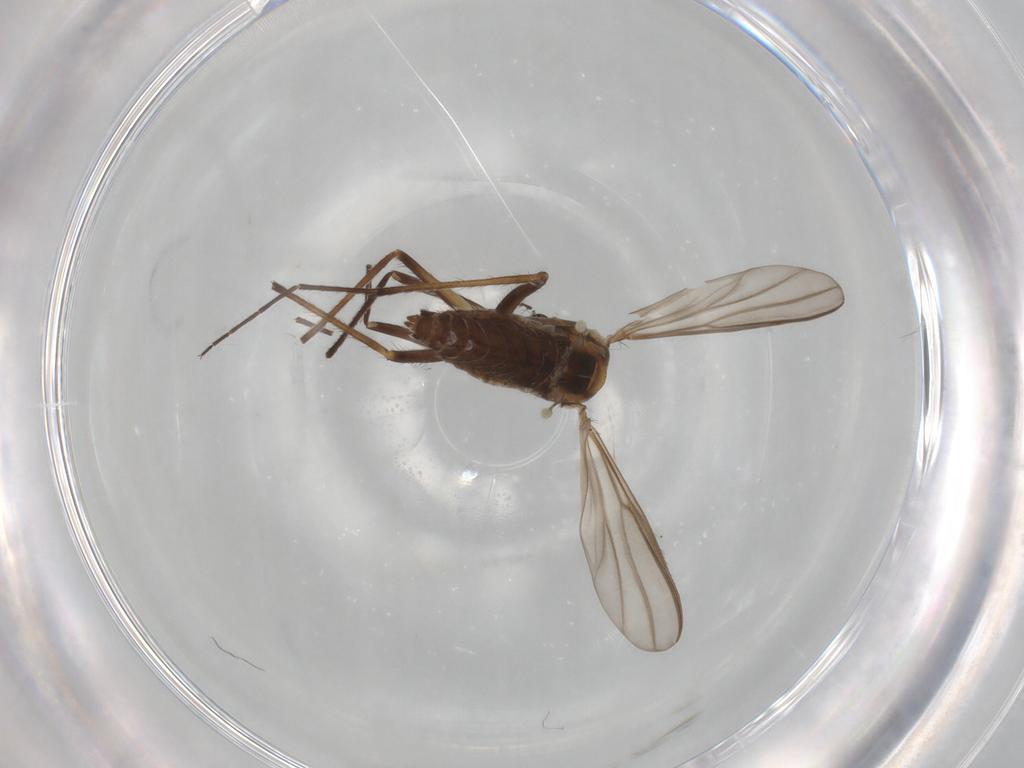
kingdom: Animalia
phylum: Arthropoda
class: Insecta
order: Diptera
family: Chironomidae
